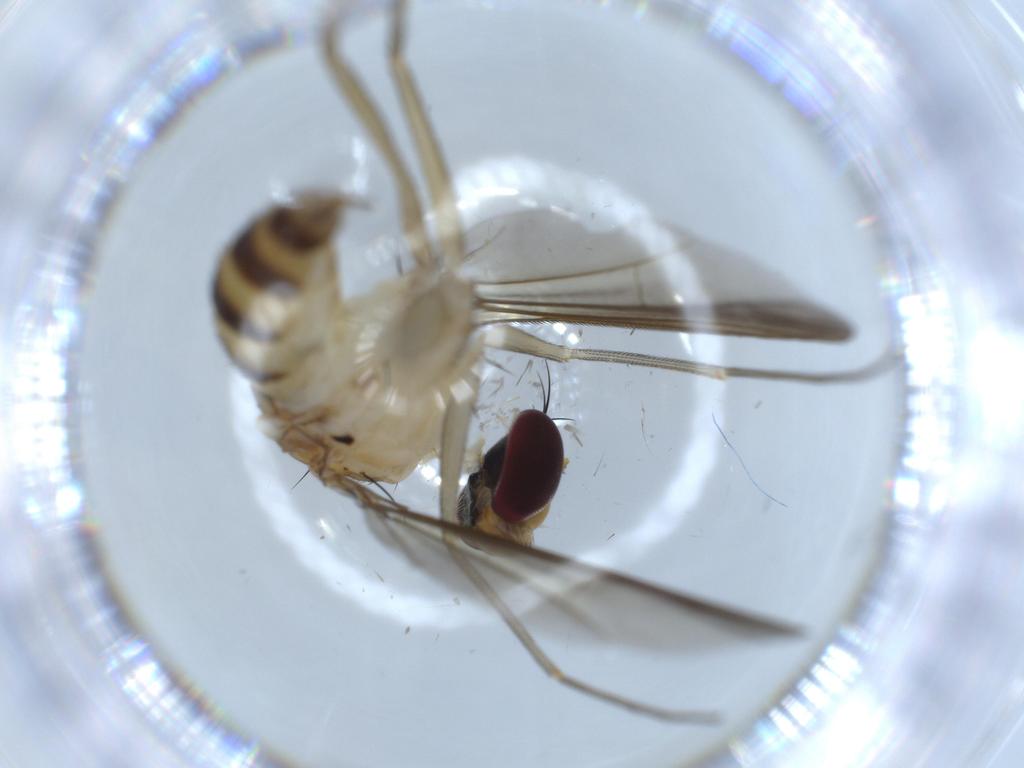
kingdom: Animalia
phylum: Arthropoda
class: Insecta
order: Diptera
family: Dolichopodidae
